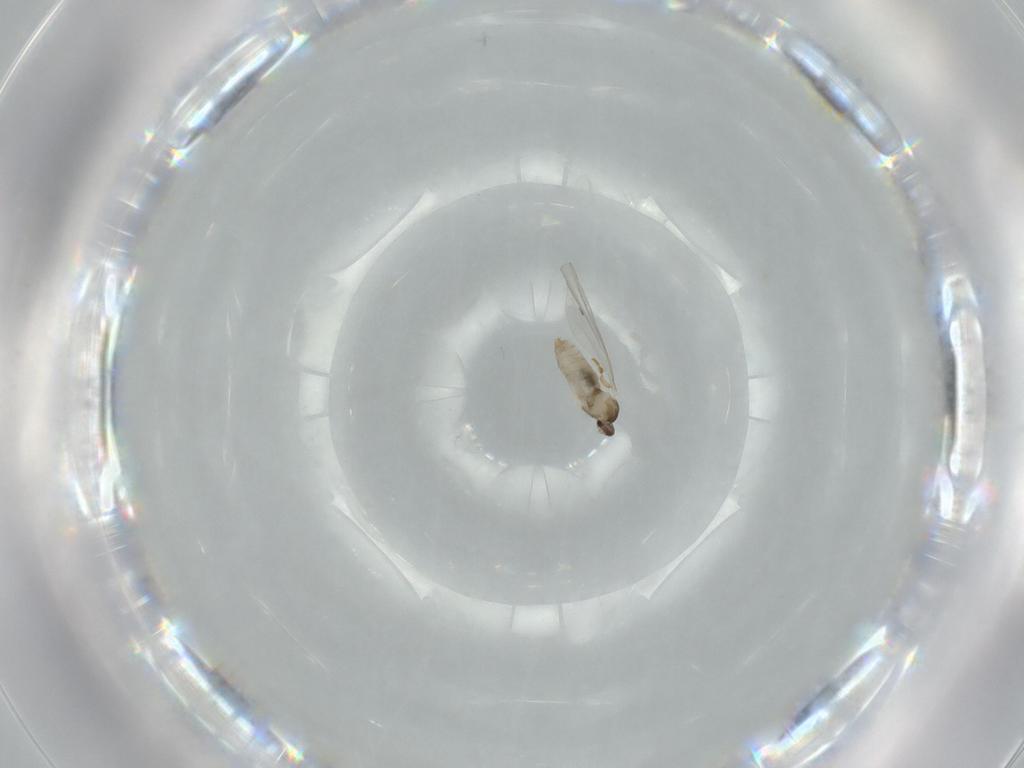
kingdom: Animalia
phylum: Arthropoda
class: Insecta
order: Diptera
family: Cecidomyiidae
